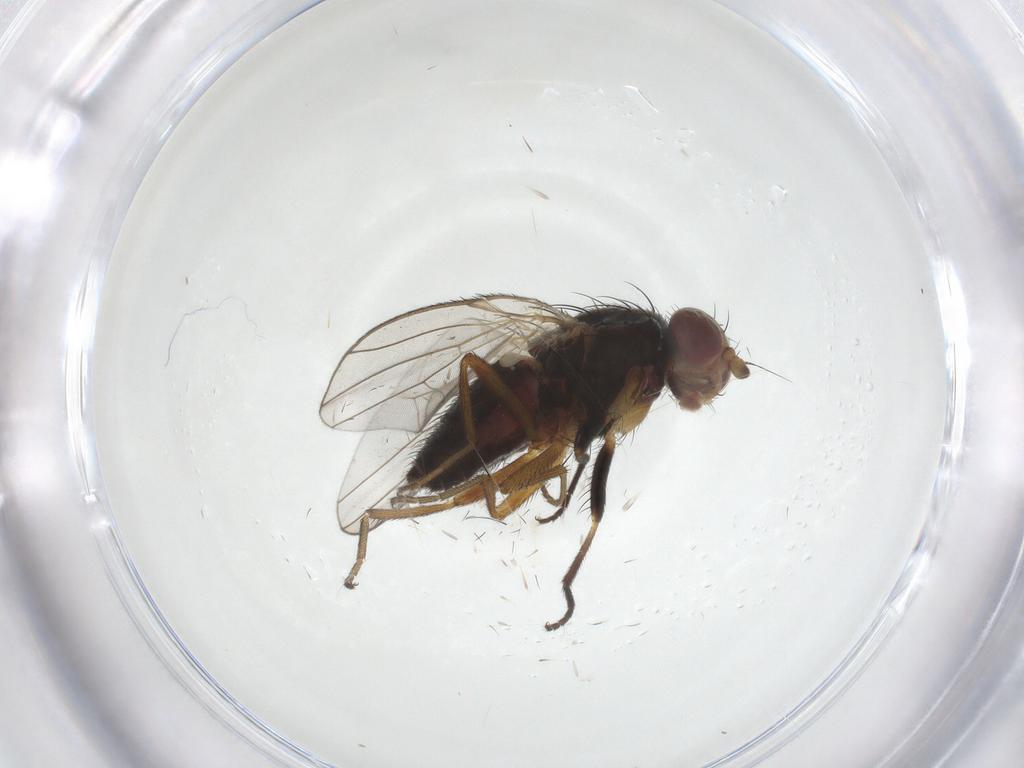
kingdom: Animalia
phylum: Arthropoda
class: Insecta
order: Diptera
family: Heleomyzidae
